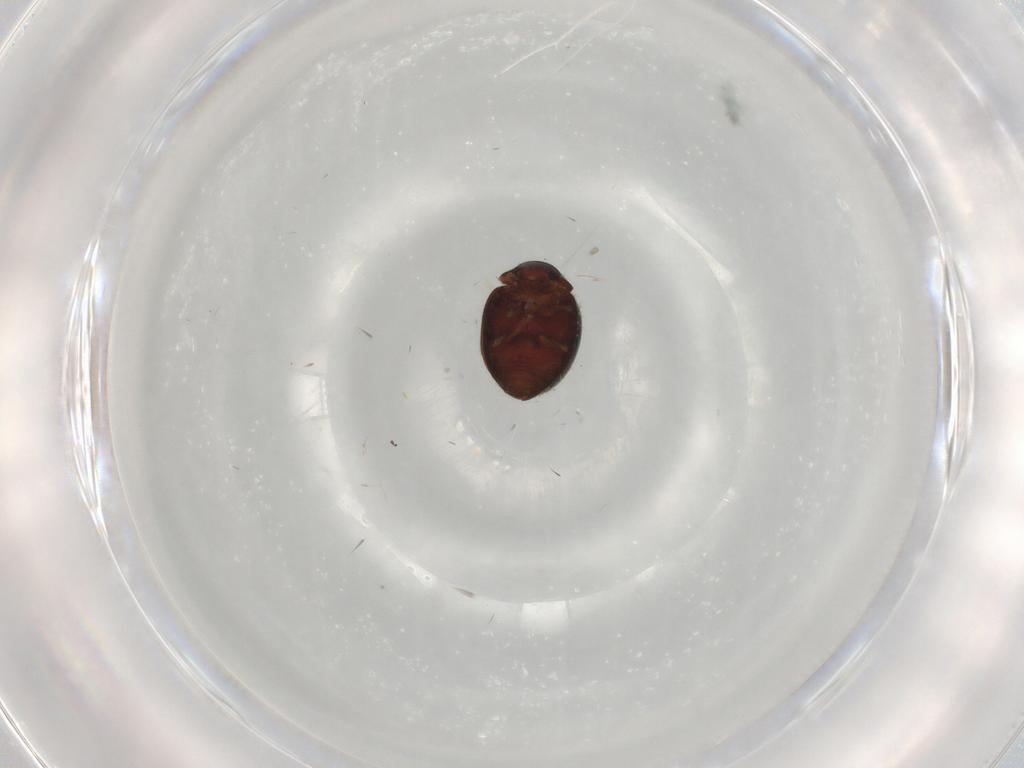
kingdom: Animalia
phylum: Arthropoda
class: Insecta
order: Coleoptera
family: Coccinellidae
